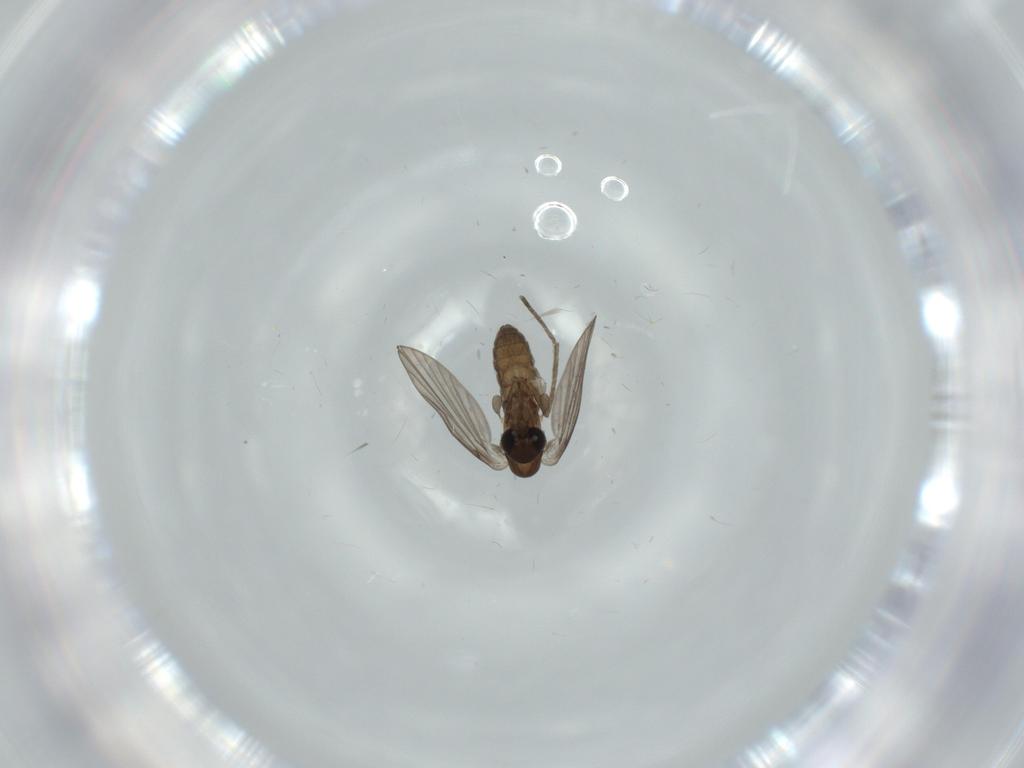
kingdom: Animalia
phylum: Arthropoda
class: Insecta
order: Diptera
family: Psychodidae
